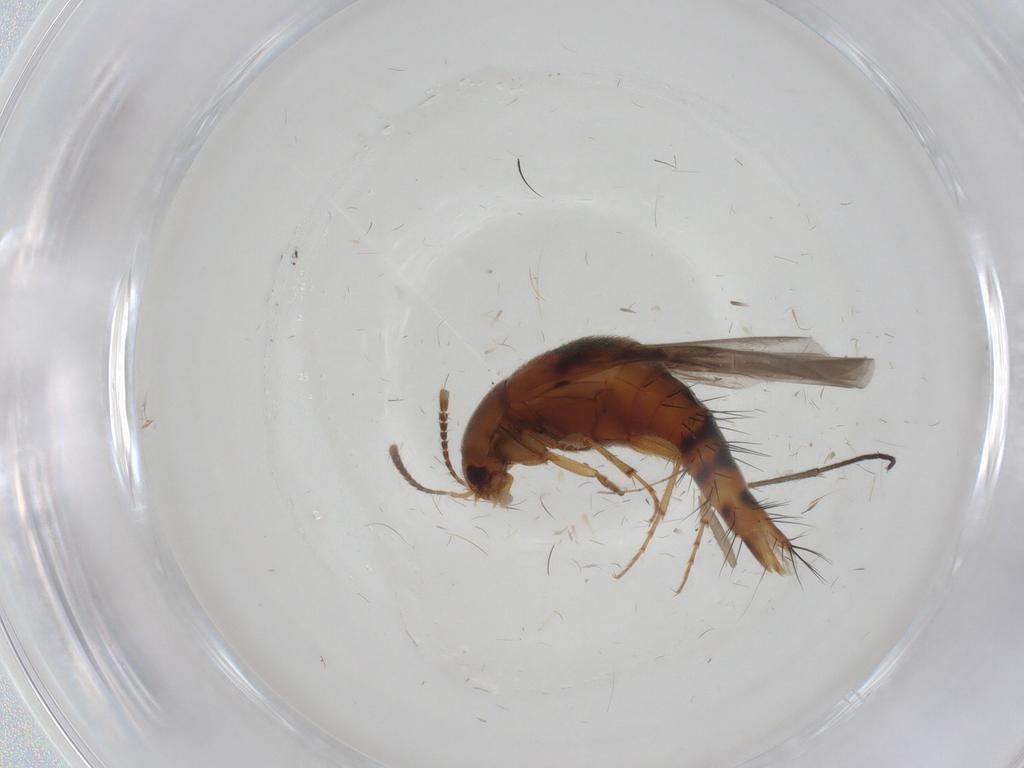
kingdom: Animalia
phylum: Arthropoda
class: Insecta
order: Coleoptera
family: Staphylinidae
